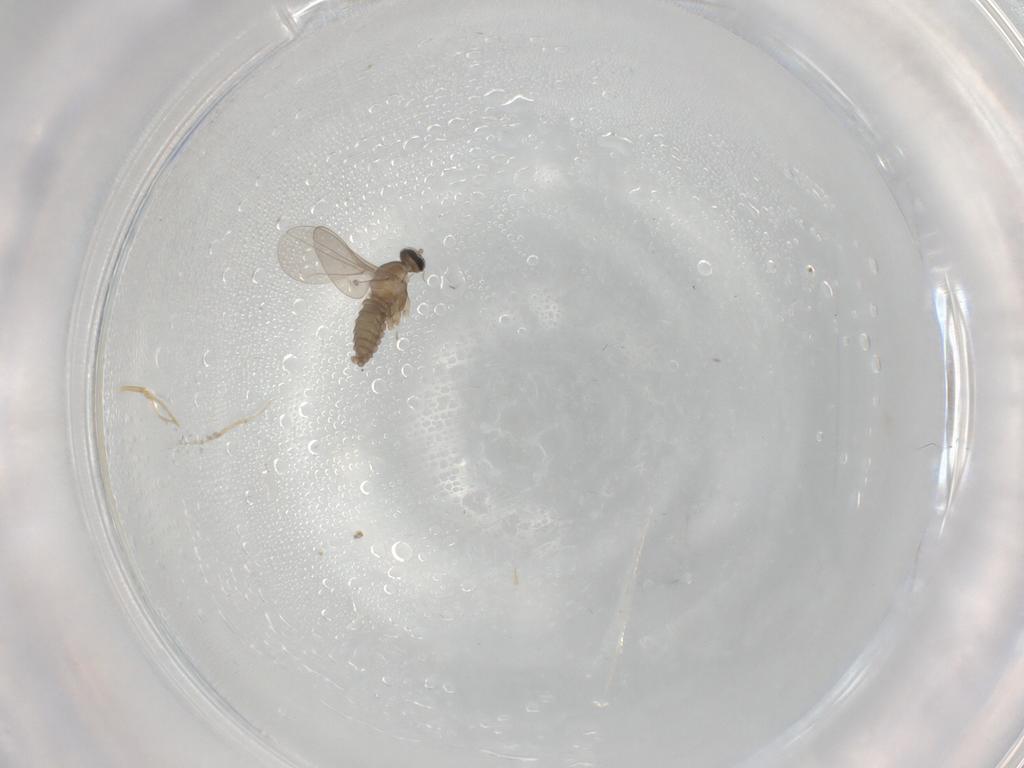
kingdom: Animalia
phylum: Arthropoda
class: Insecta
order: Diptera
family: Cecidomyiidae
